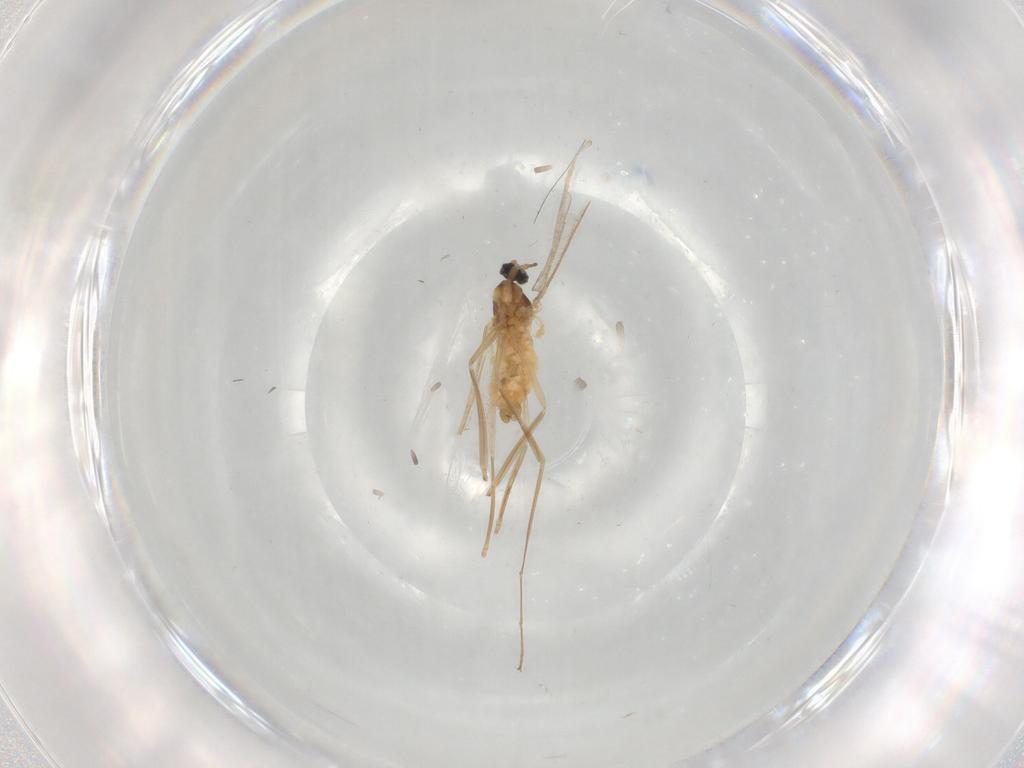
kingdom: Animalia
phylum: Arthropoda
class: Insecta
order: Diptera
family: Cecidomyiidae
